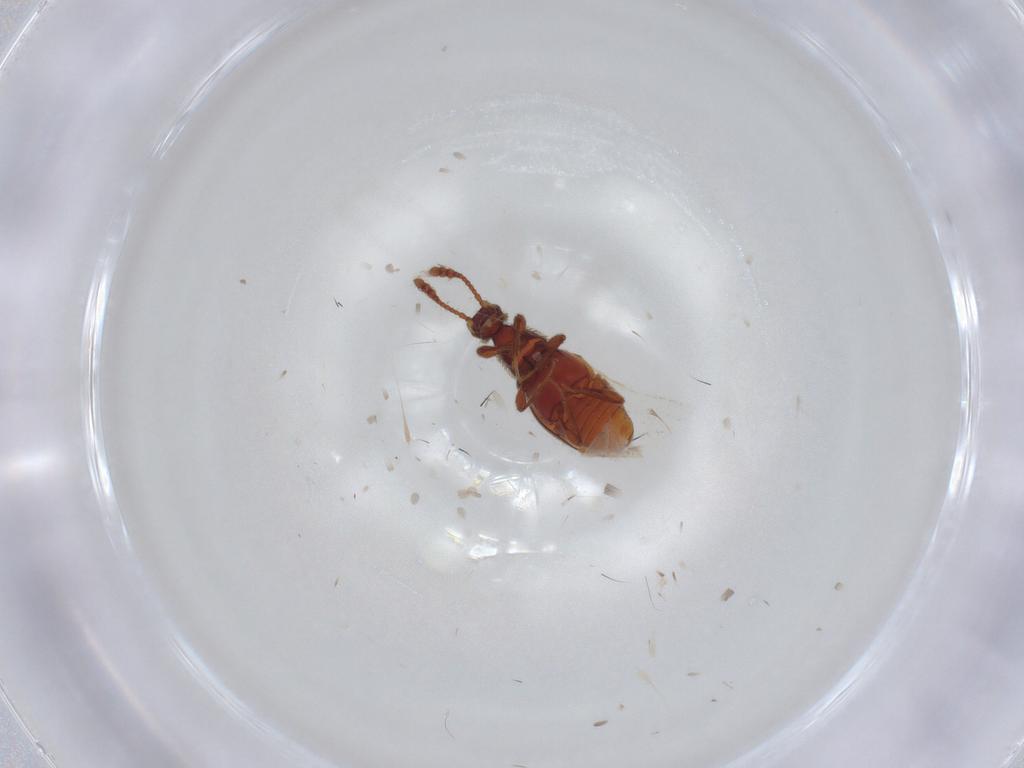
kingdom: Animalia
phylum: Arthropoda
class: Insecta
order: Coleoptera
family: Staphylinidae
